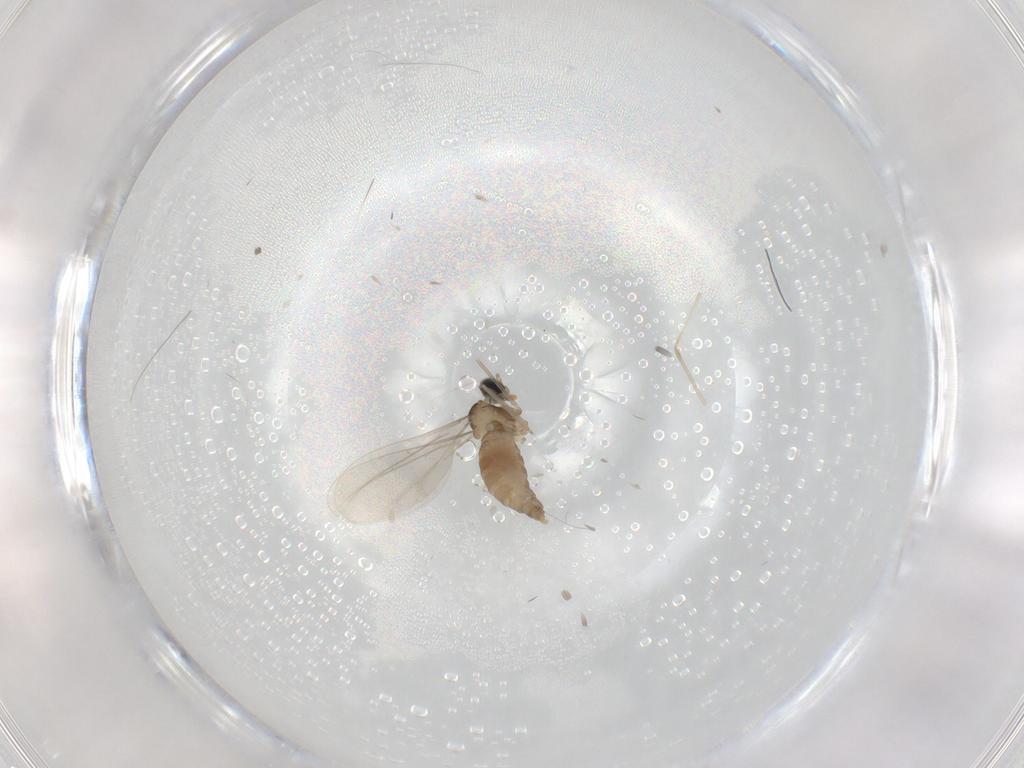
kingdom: Animalia
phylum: Arthropoda
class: Insecta
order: Diptera
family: Cecidomyiidae
